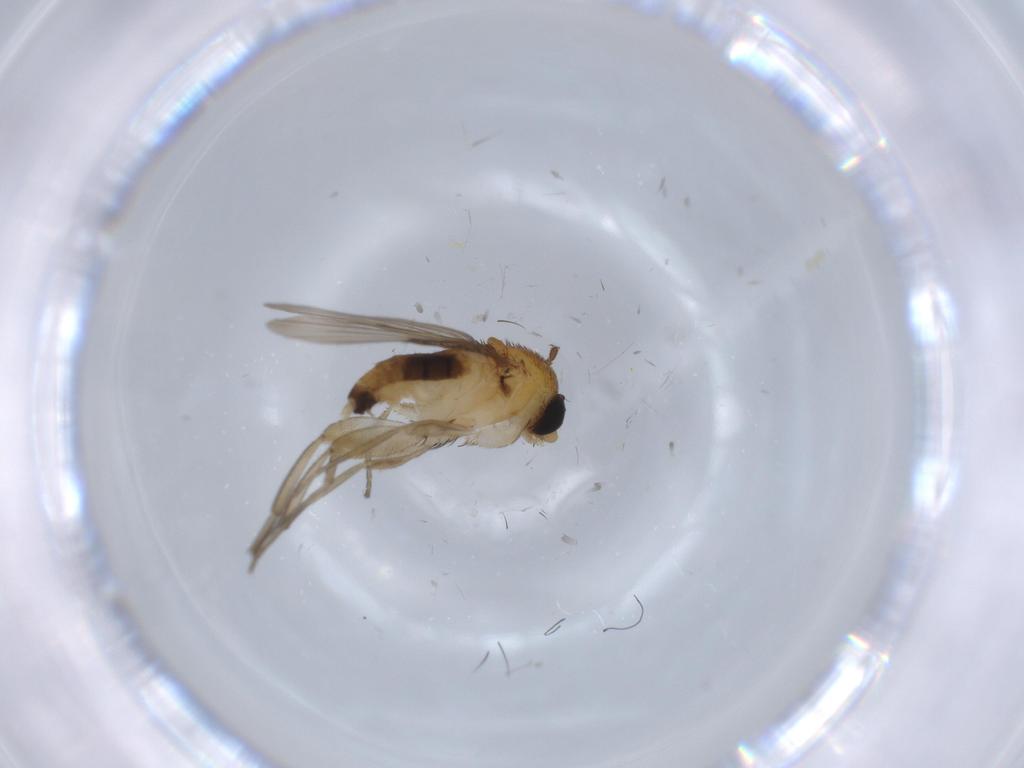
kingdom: Animalia
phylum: Arthropoda
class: Insecta
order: Diptera
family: Phoridae
